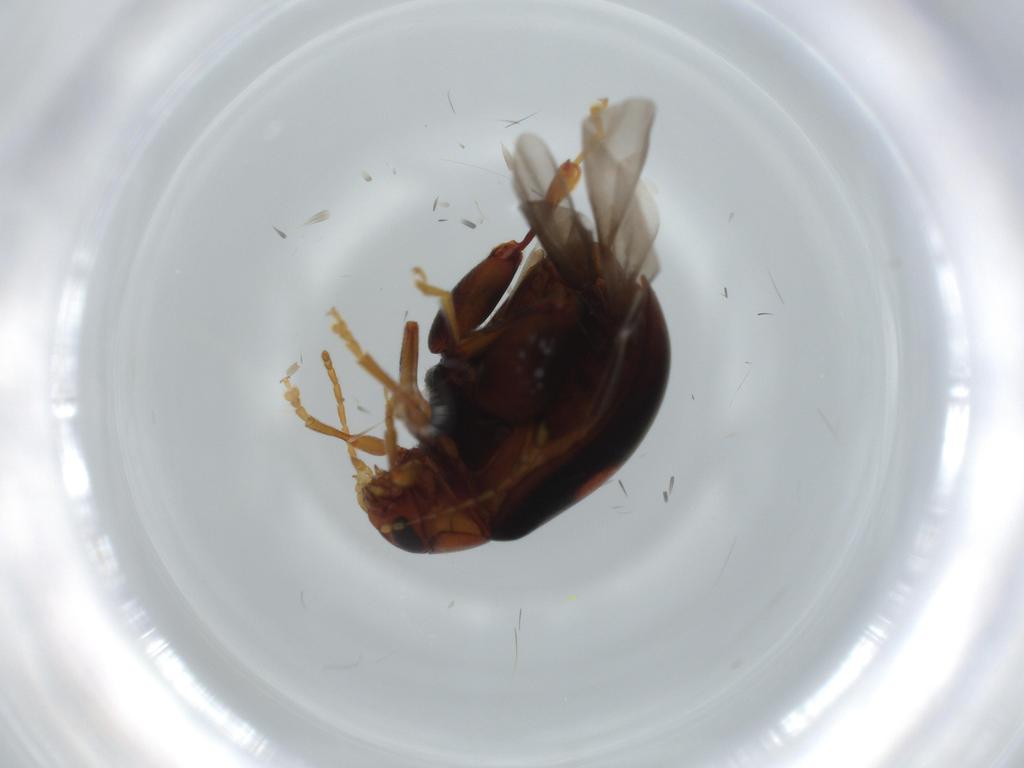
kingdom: Animalia
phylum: Arthropoda
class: Insecta
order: Coleoptera
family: Chrysomelidae
